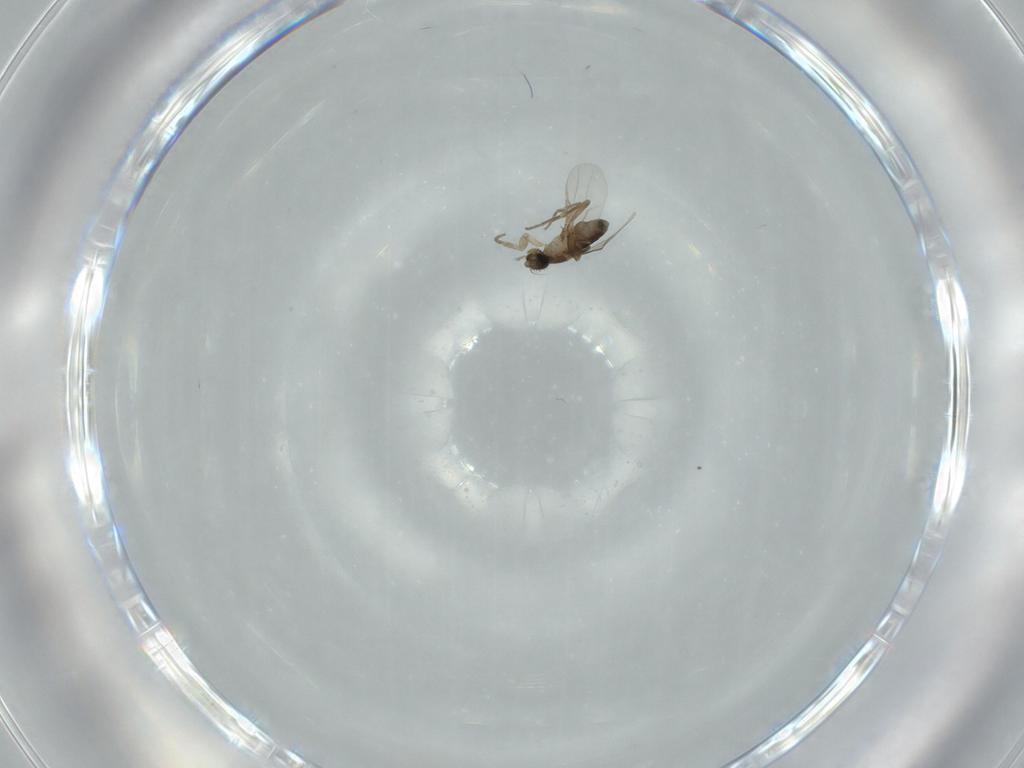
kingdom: Animalia
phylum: Arthropoda
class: Insecta
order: Diptera
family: Phoridae
